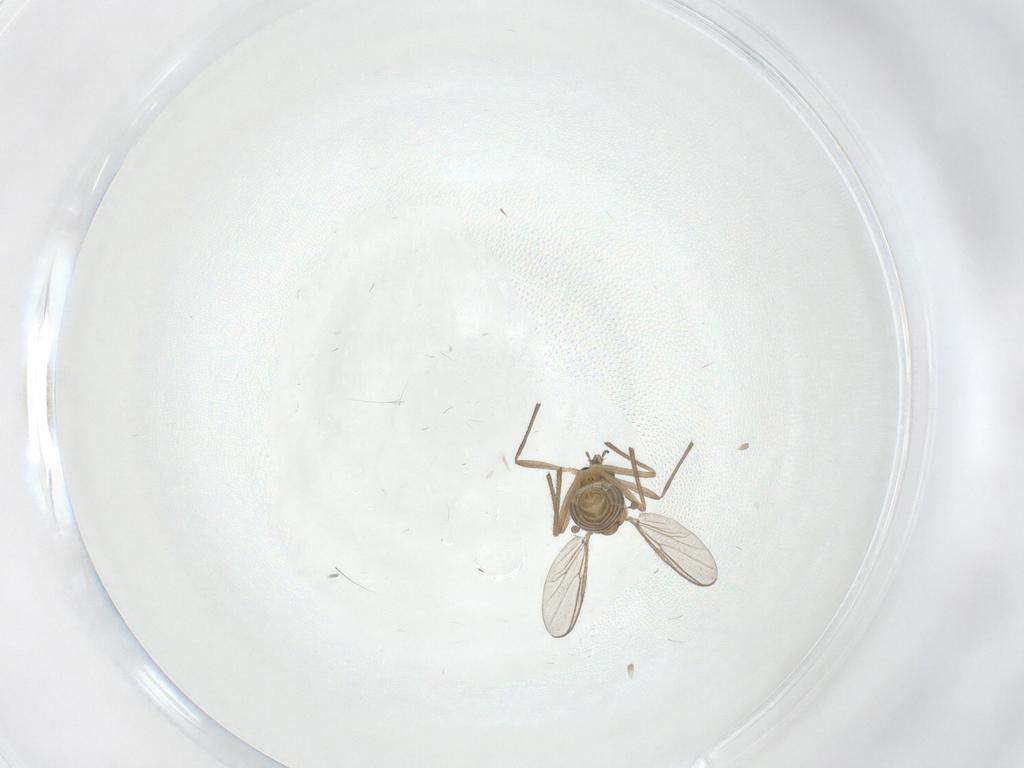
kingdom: Animalia
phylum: Arthropoda
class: Insecta
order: Diptera
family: Chironomidae
